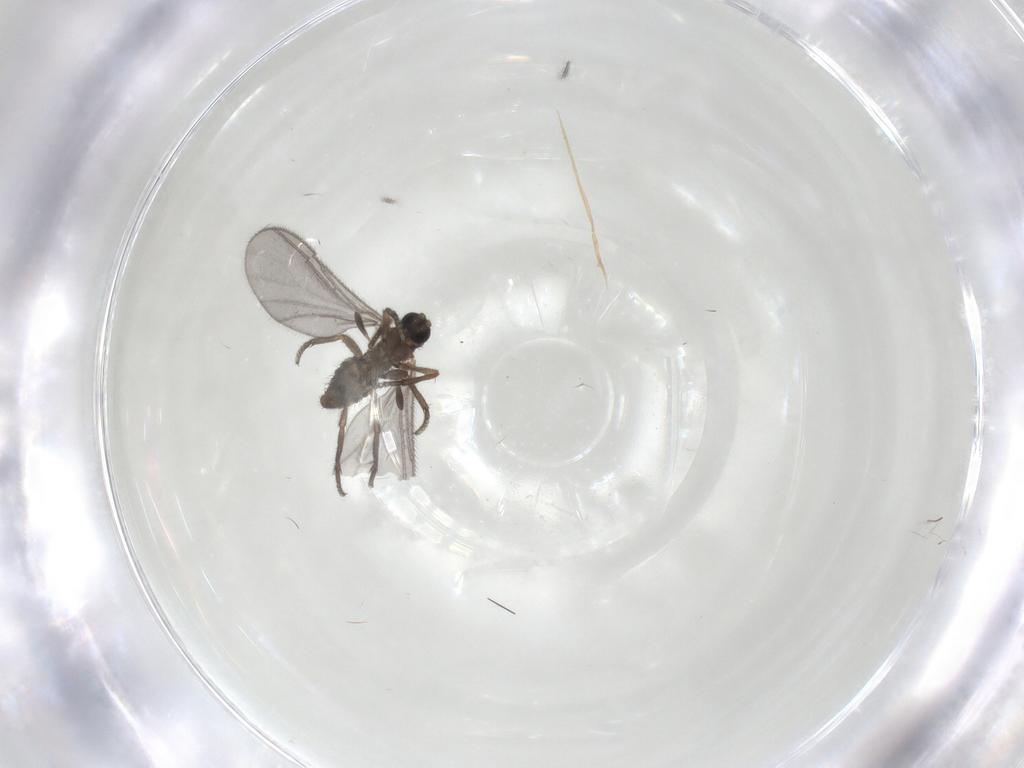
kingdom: Animalia
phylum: Arthropoda
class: Insecta
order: Diptera
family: Sciaridae
